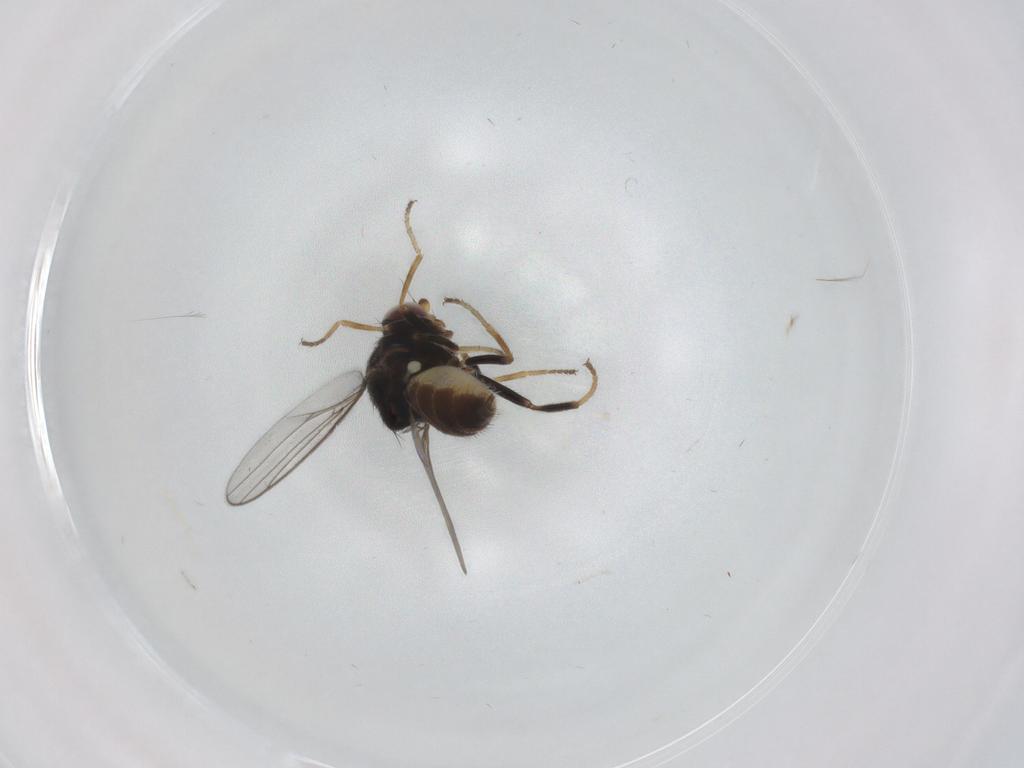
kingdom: Animalia
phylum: Arthropoda
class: Insecta
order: Diptera
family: Chloropidae
